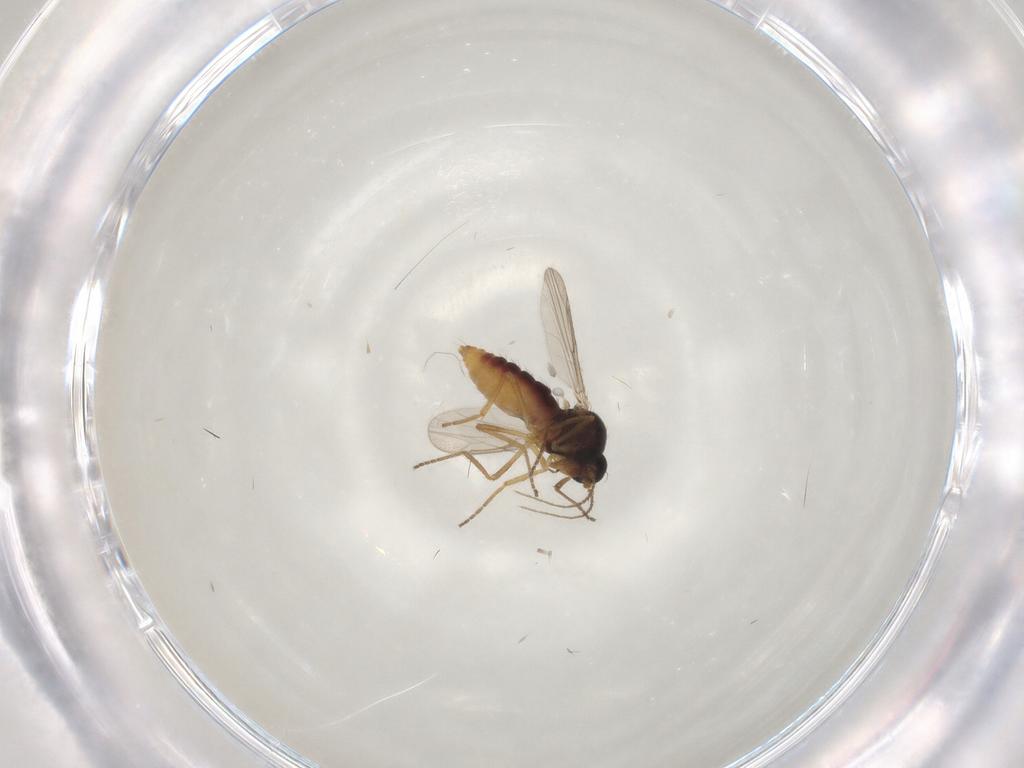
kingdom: Animalia
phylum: Arthropoda
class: Insecta
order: Diptera
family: Ceratopogonidae
